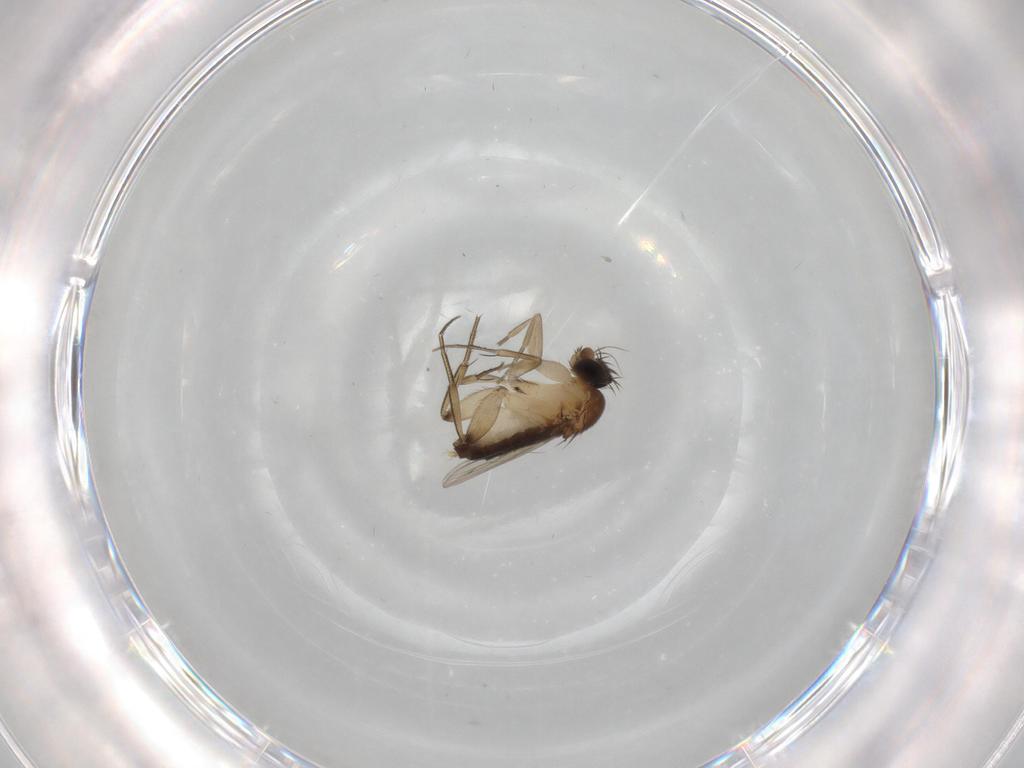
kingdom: Animalia
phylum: Arthropoda
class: Insecta
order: Diptera
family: Phoridae
